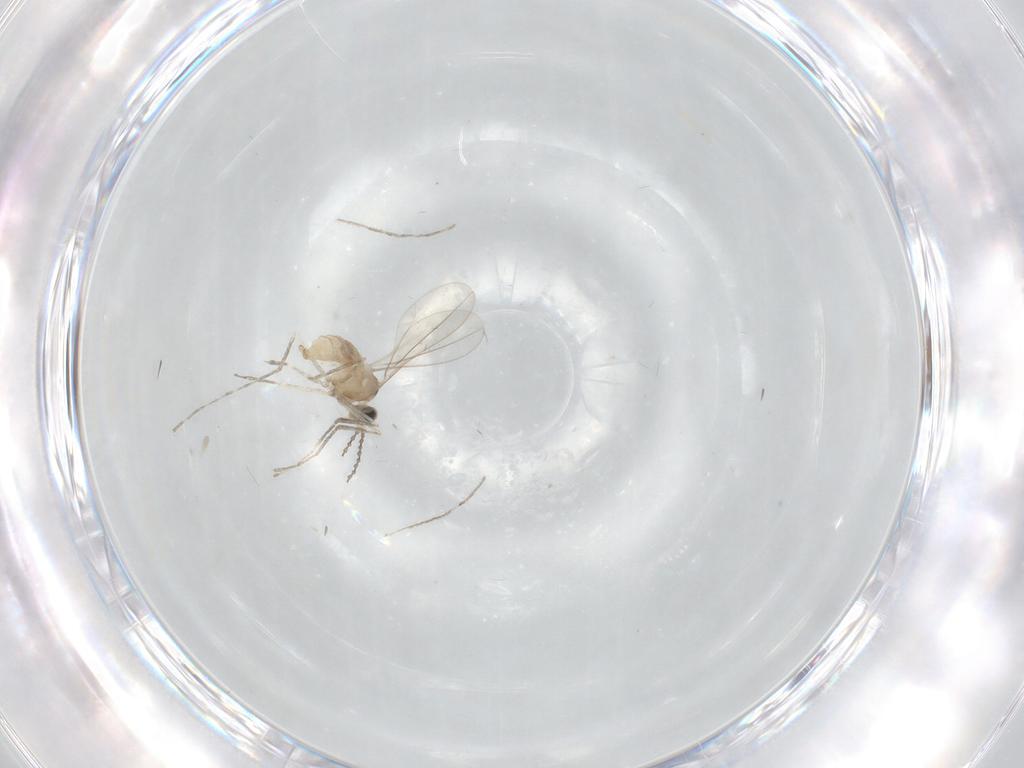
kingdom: Animalia
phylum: Arthropoda
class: Insecta
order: Diptera
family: Cecidomyiidae
